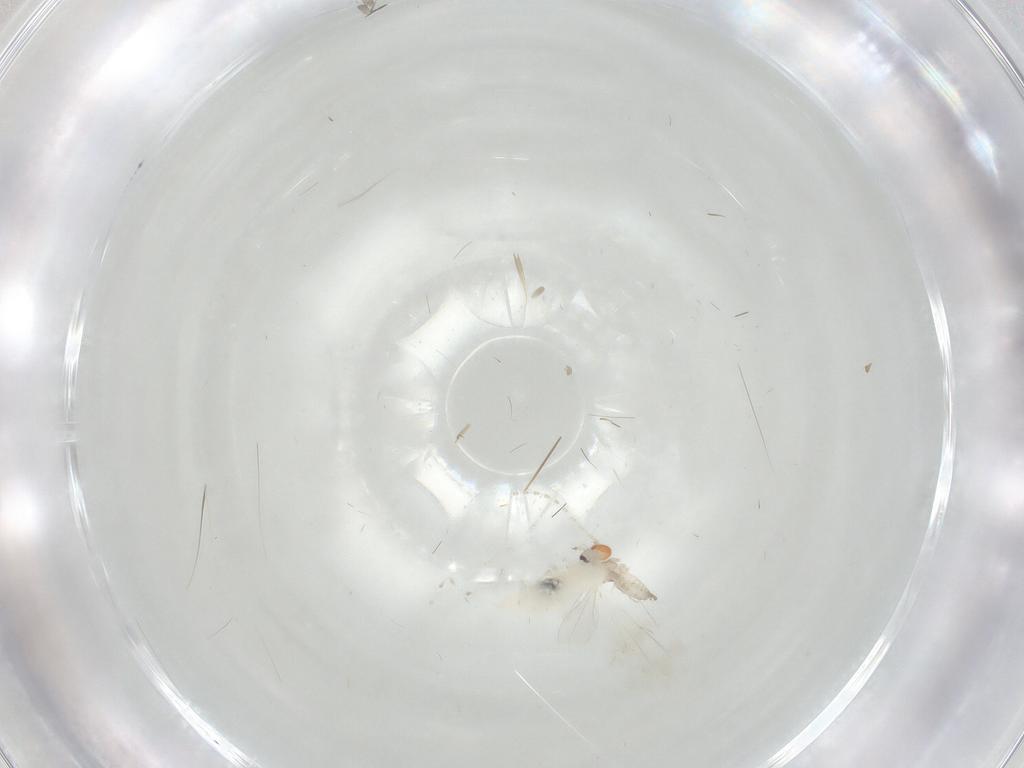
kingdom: Animalia
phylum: Arthropoda
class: Insecta
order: Diptera
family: Cecidomyiidae
